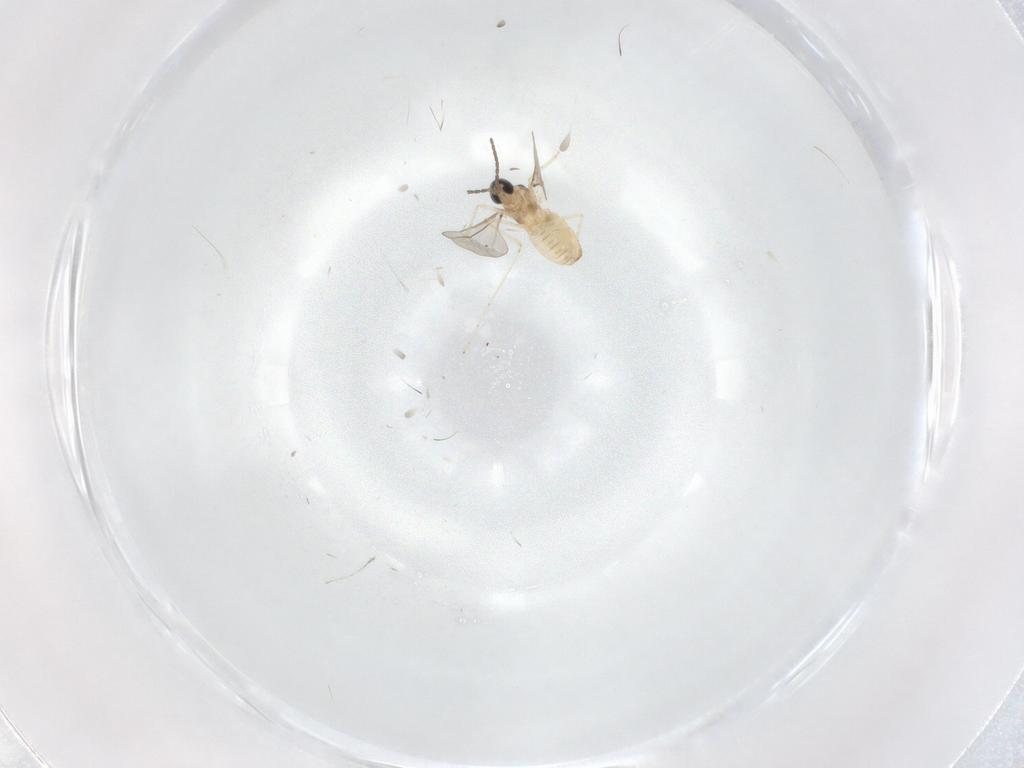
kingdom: Animalia
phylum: Arthropoda
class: Insecta
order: Diptera
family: Cecidomyiidae
